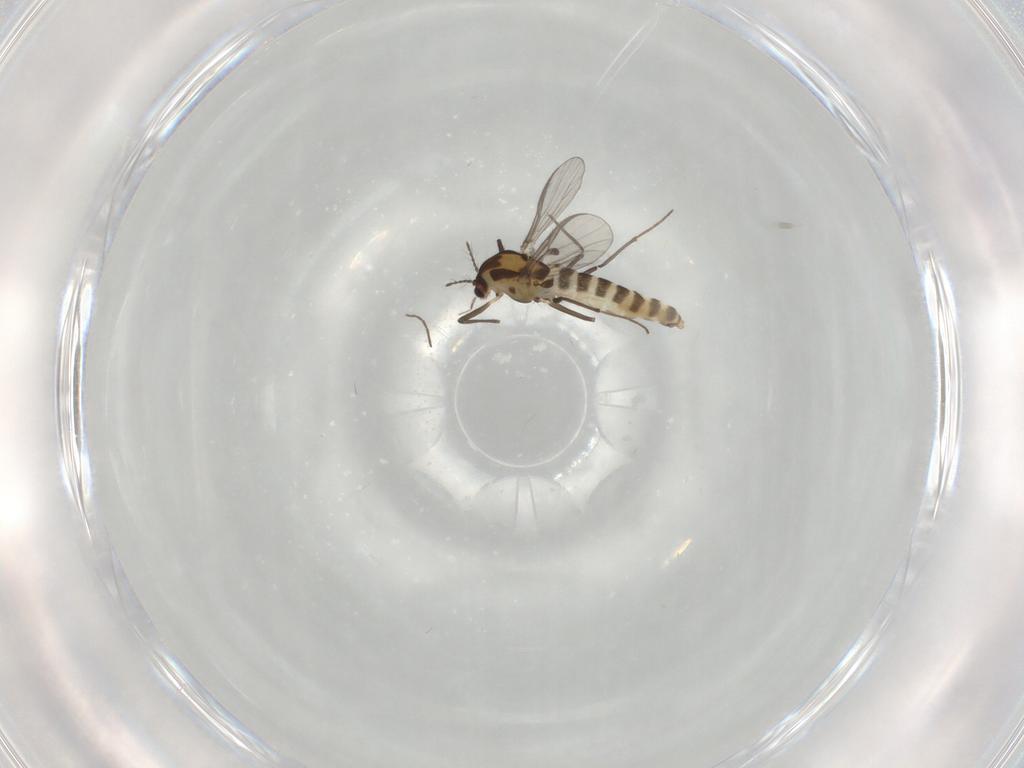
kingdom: Animalia
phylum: Arthropoda
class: Insecta
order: Diptera
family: Chironomidae
